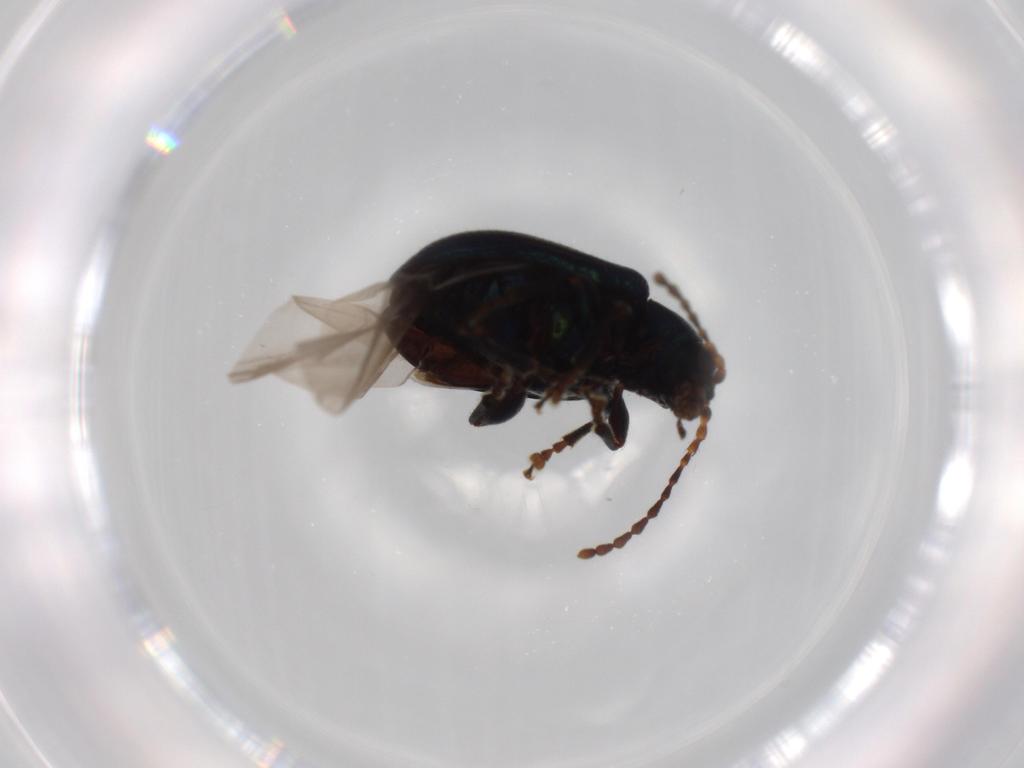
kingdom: Animalia
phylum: Arthropoda
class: Insecta
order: Coleoptera
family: Chrysomelidae
